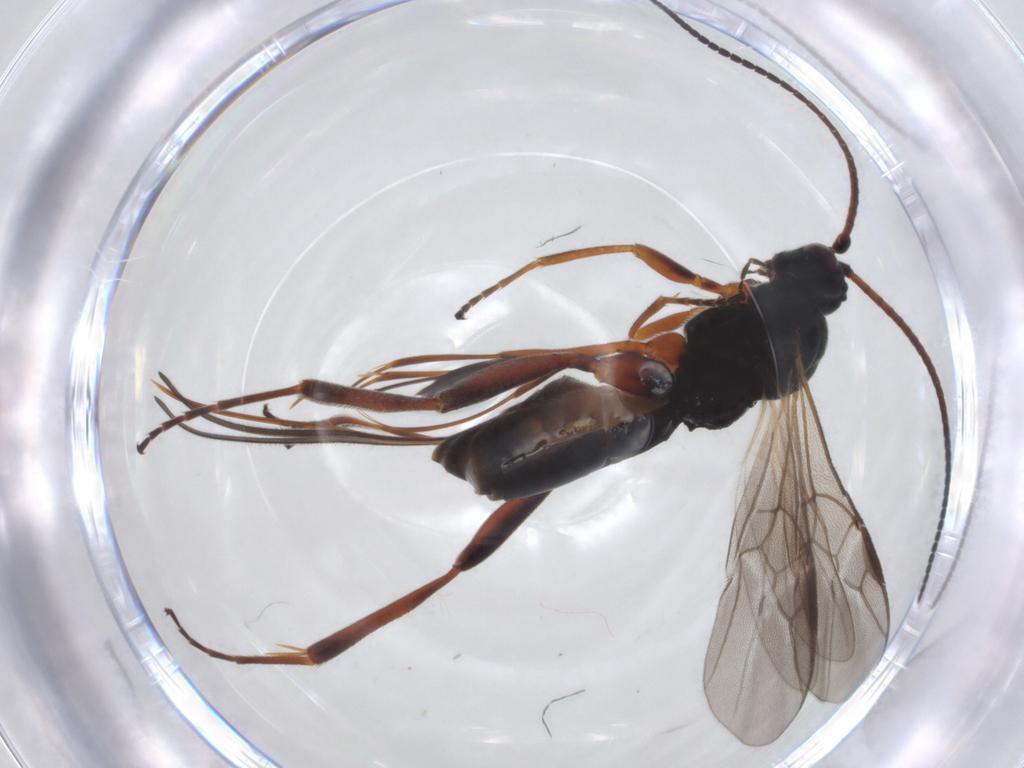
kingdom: Animalia
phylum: Arthropoda
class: Insecta
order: Hymenoptera
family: Braconidae
